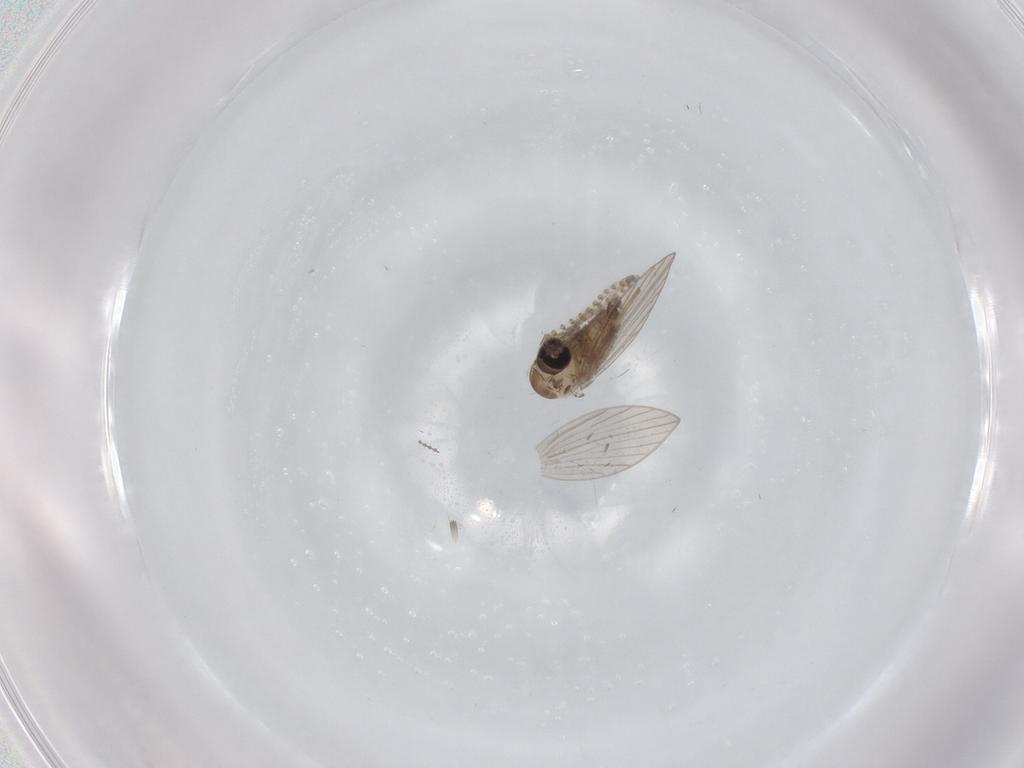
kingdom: Animalia
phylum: Arthropoda
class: Insecta
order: Diptera
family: Psychodidae
